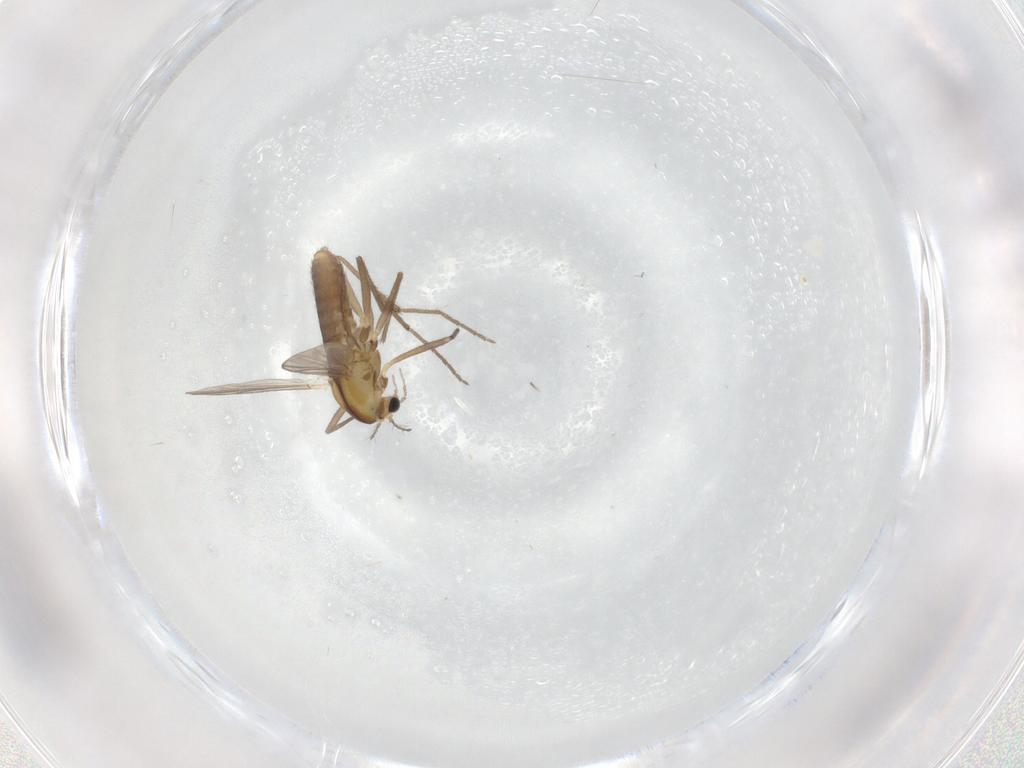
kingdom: Animalia
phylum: Arthropoda
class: Insecta
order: Diptera
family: Chironomidae
